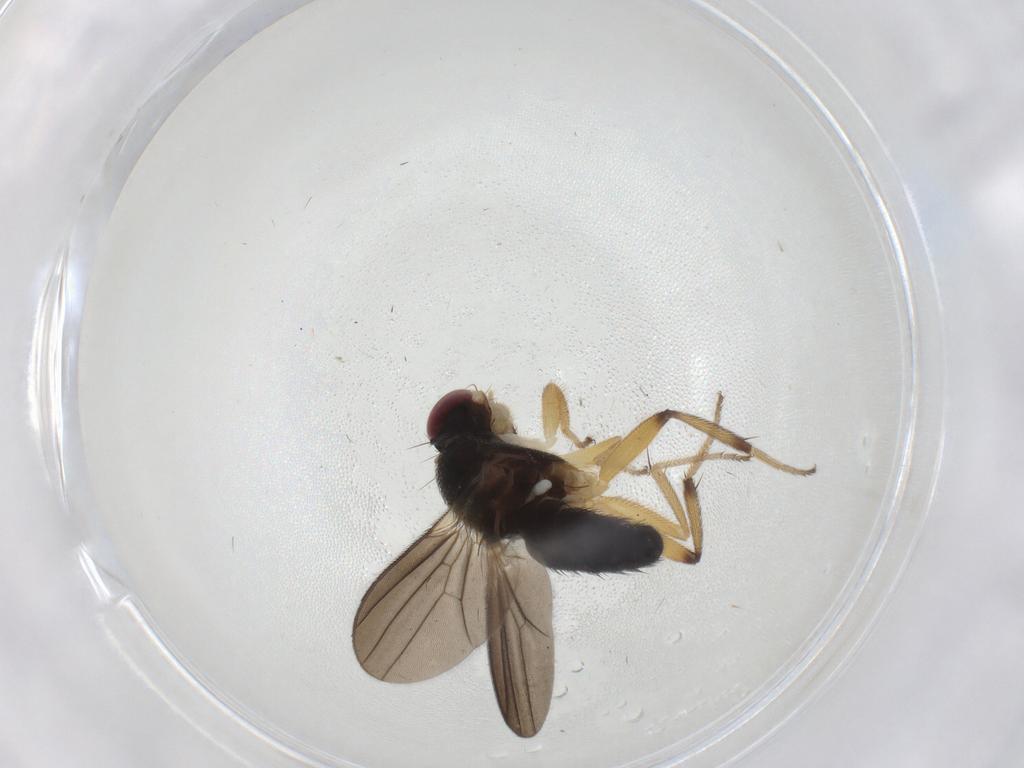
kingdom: Animalia
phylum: Arthropoda
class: Insecta
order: Diptera
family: Cecidomyiidae
